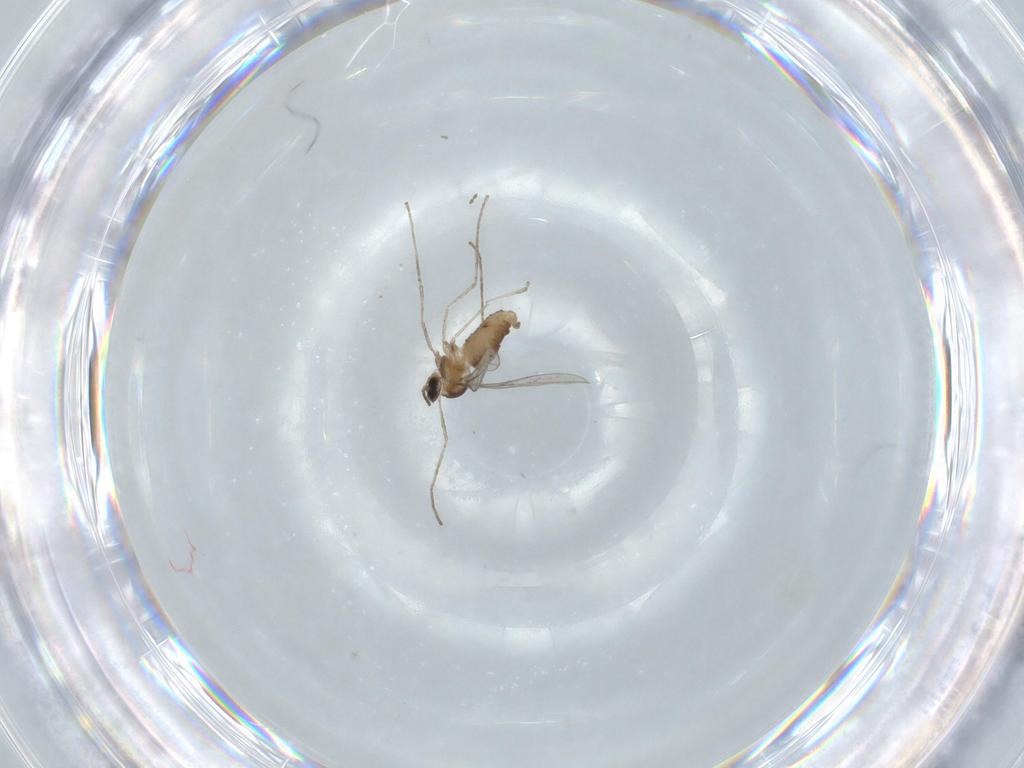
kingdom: Animalia
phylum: Arthropoda
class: Insecta
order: Diptera
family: Cecidomyiidae
